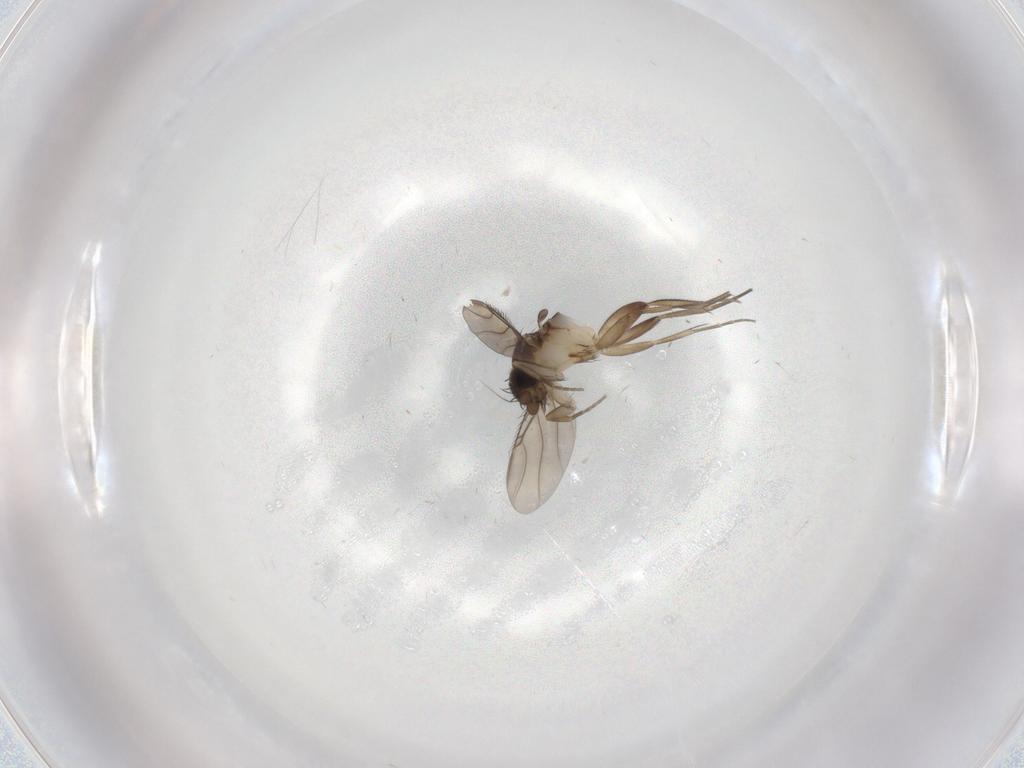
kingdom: Animalia
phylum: Arthropoda
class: Insecta
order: Diptera
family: Phoridae
